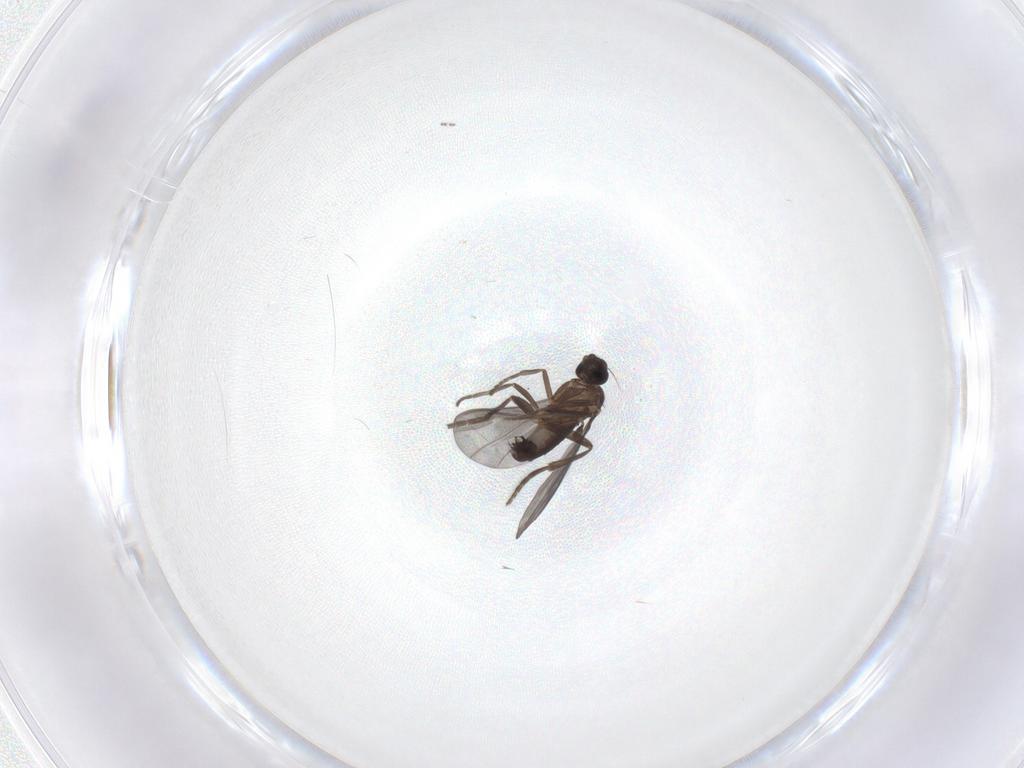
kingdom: Animalia
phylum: Arthropoda
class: Insecta
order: Diptera
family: Phoridae
